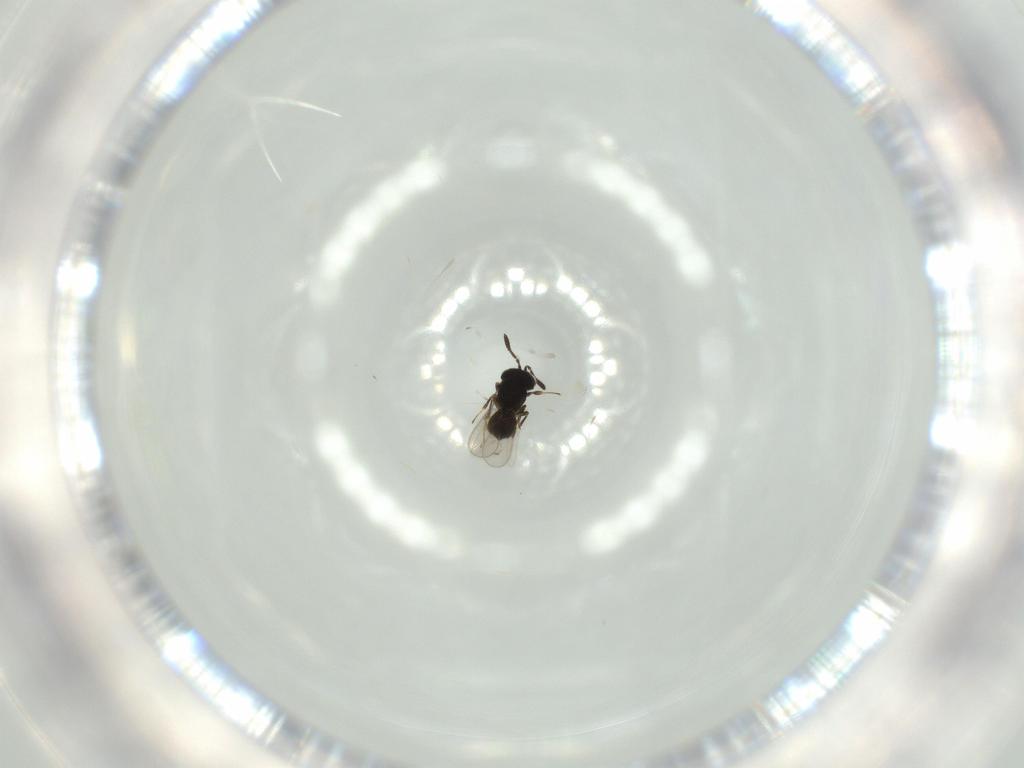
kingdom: Animalia
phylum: Arthropoda
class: Insecta
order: Hymenoptera
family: Scelionidae
